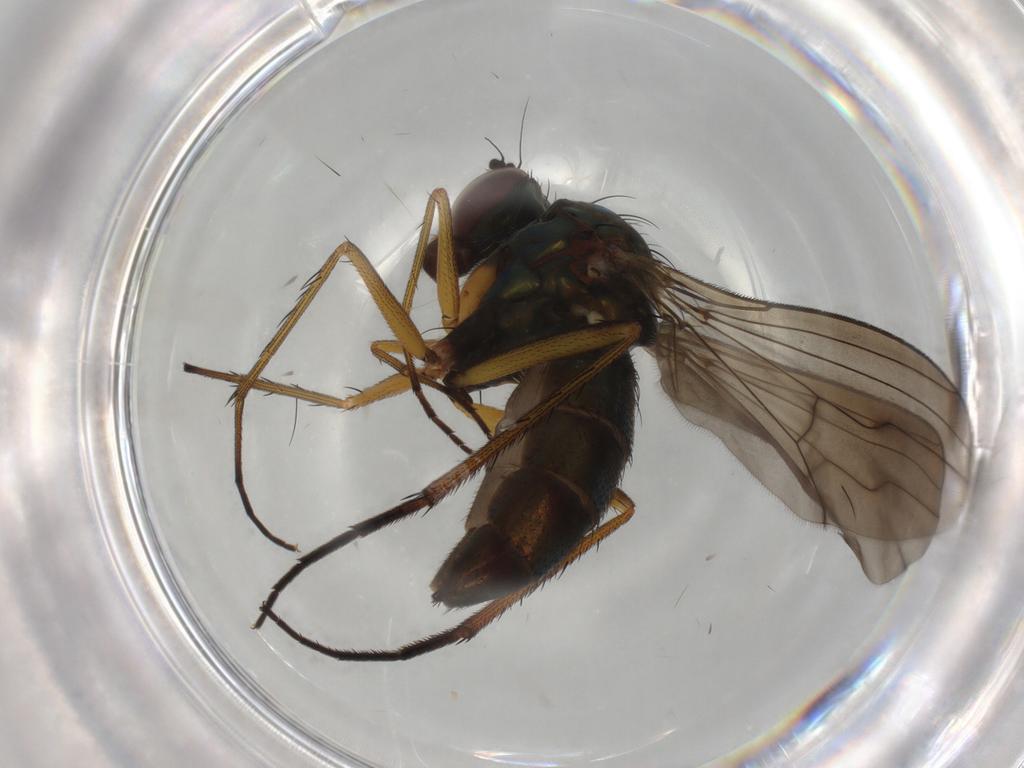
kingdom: Animalia
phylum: Arthropoda
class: Insecta
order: Diptera
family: Dolichopodidae
